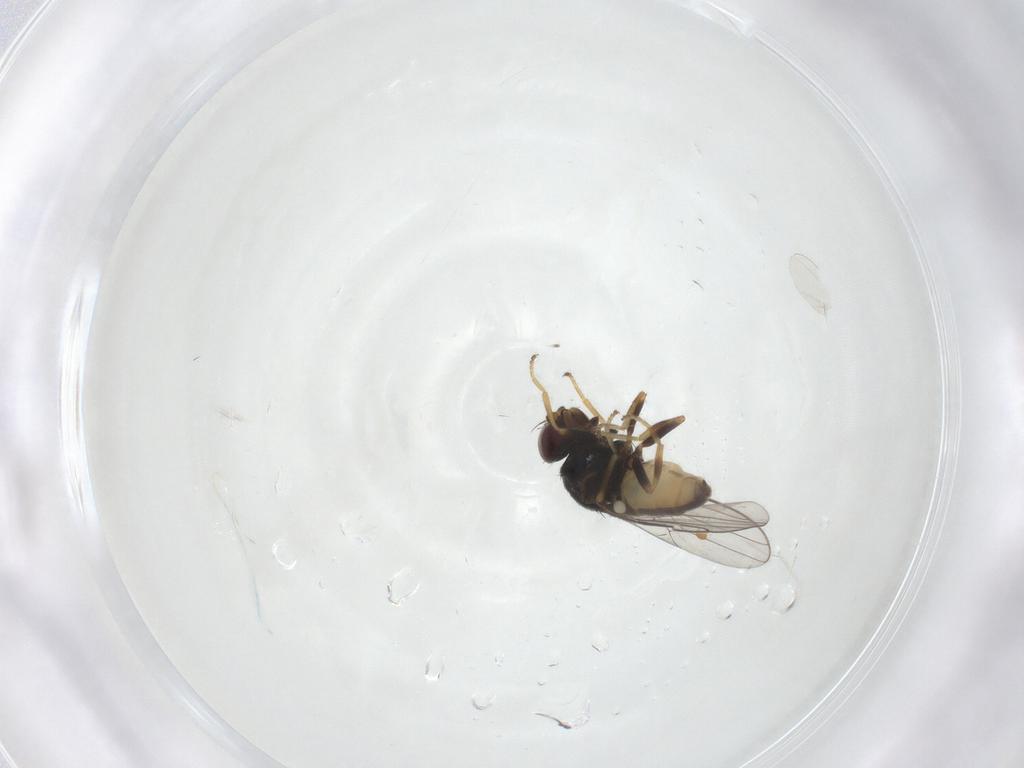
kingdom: Animalia
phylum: Arthropoda
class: Insecta
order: Diptera
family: Chloropidae
